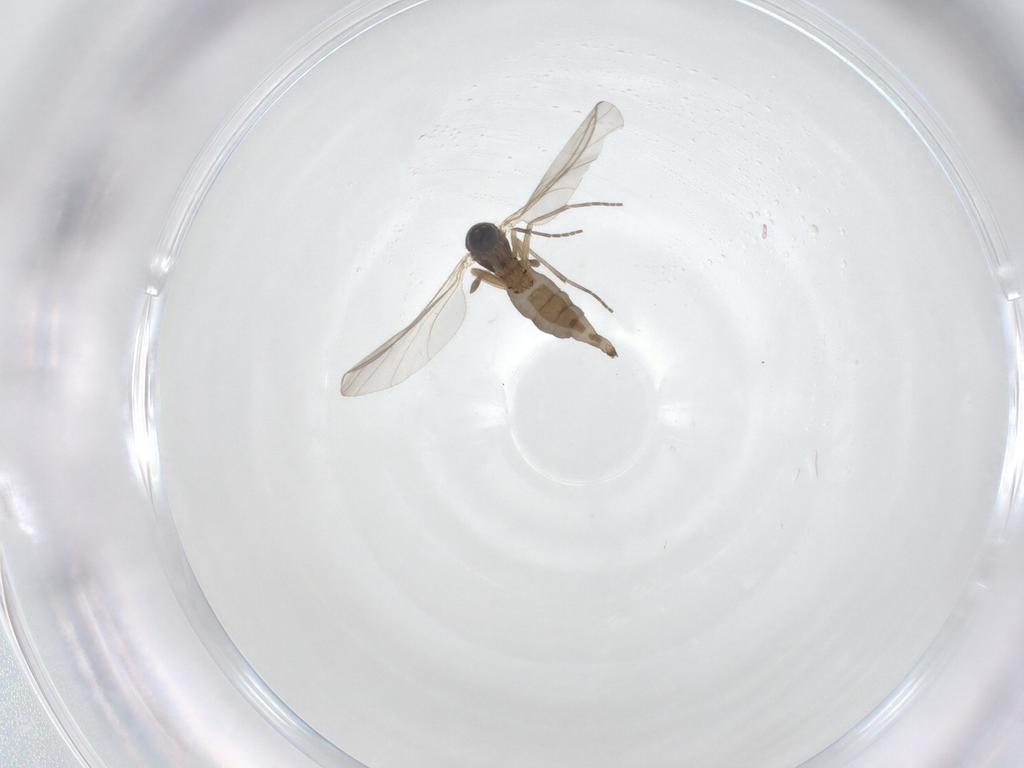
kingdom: Animalia
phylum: Arthropoda
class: Insecta
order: Diptera
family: Sciaridae
